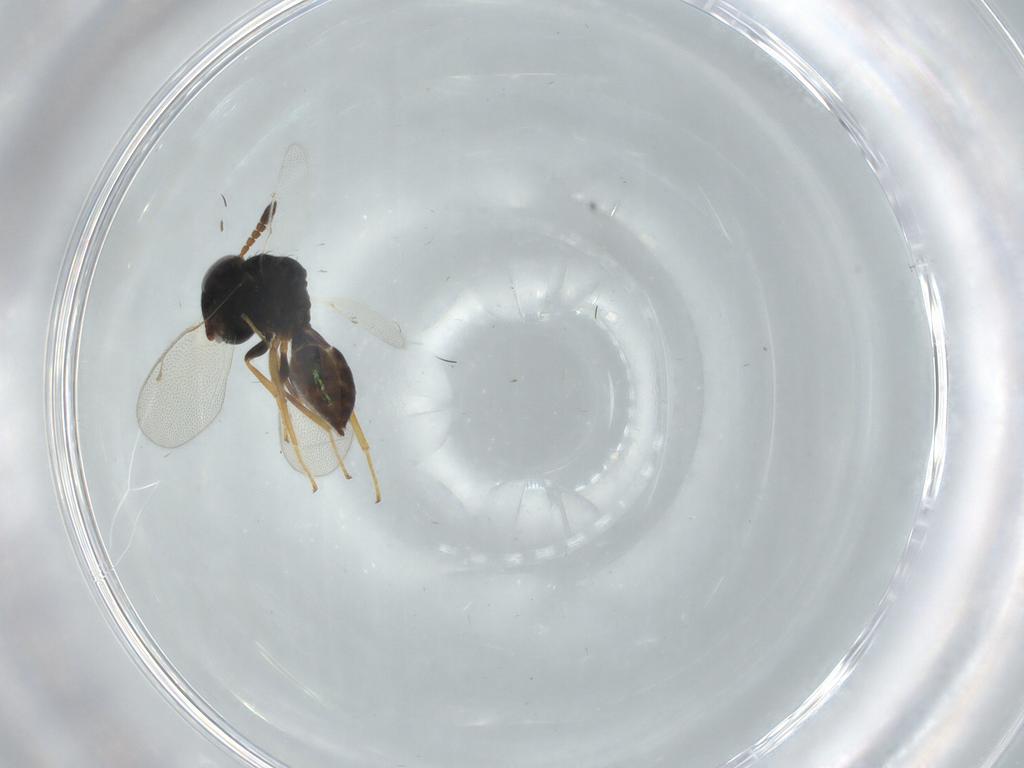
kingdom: Animalia
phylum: Arthropoda
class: Insecta
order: Hymenoptera
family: Pteromalidae
